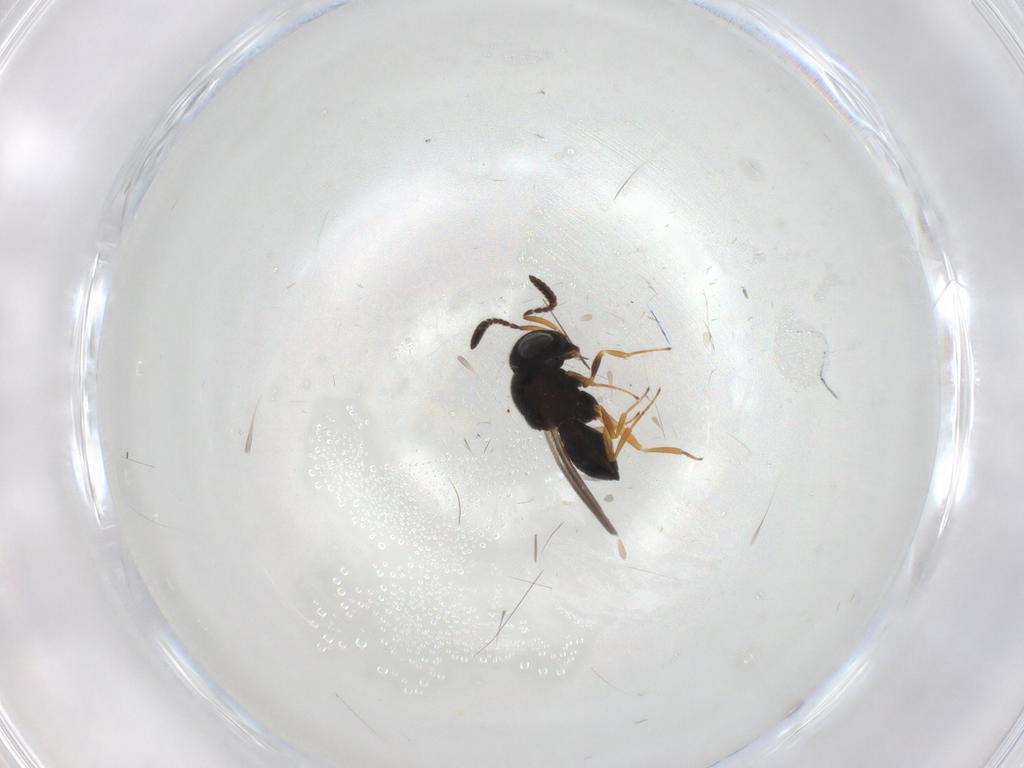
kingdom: Animalia
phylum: Arthropoda
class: Insecta
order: Hymenoptera
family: Scelionidae
